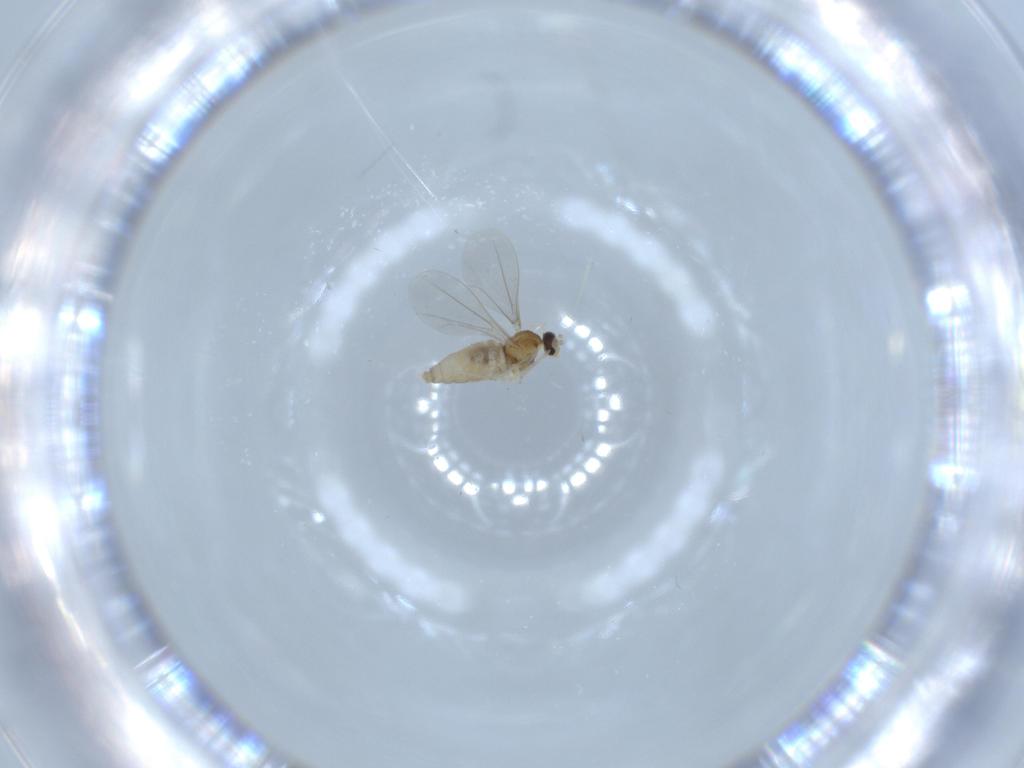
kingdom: Animalia
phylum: Arthropoda
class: Insecta
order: Diptera
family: Cecidomyiidae
